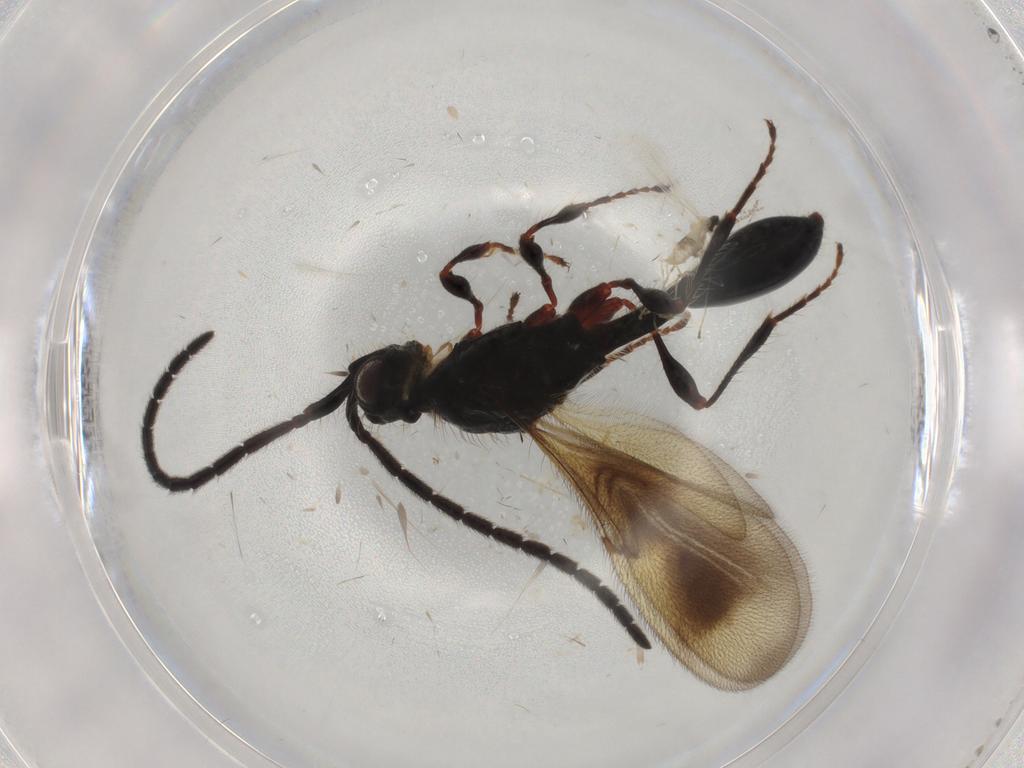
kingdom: Animalia
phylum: Arthropoda
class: Insecta
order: Hymenoptera
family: Diapriidae
